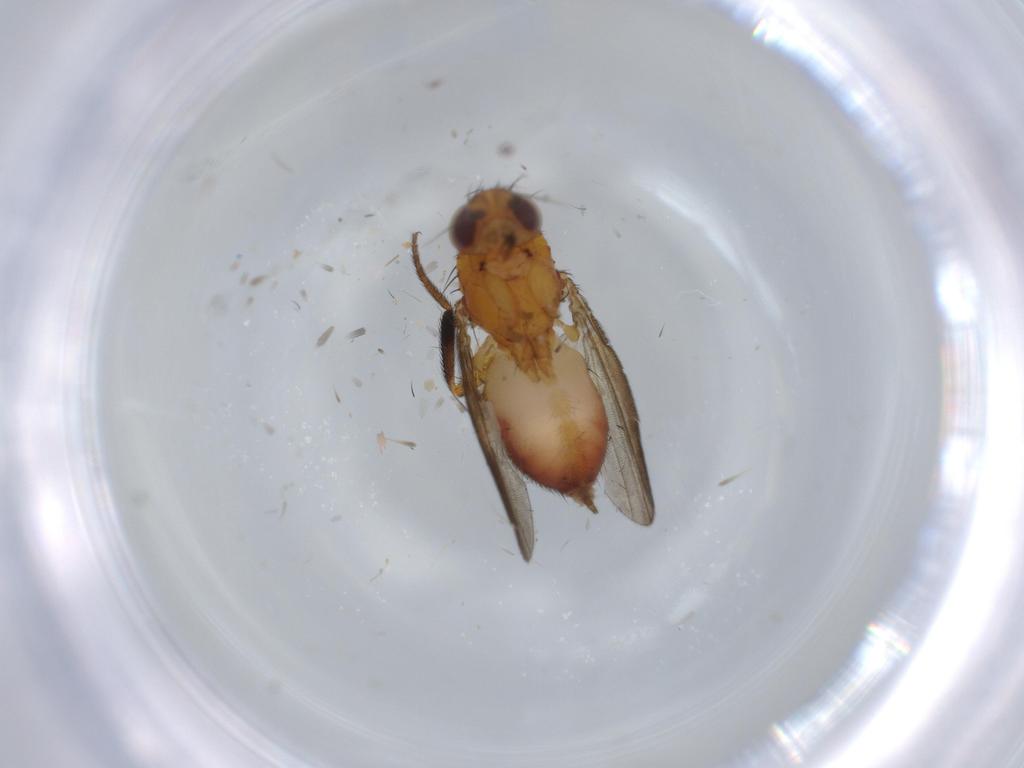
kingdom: Animalia
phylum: Arthropoda
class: Insecta
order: Diptera
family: Milichiidae
